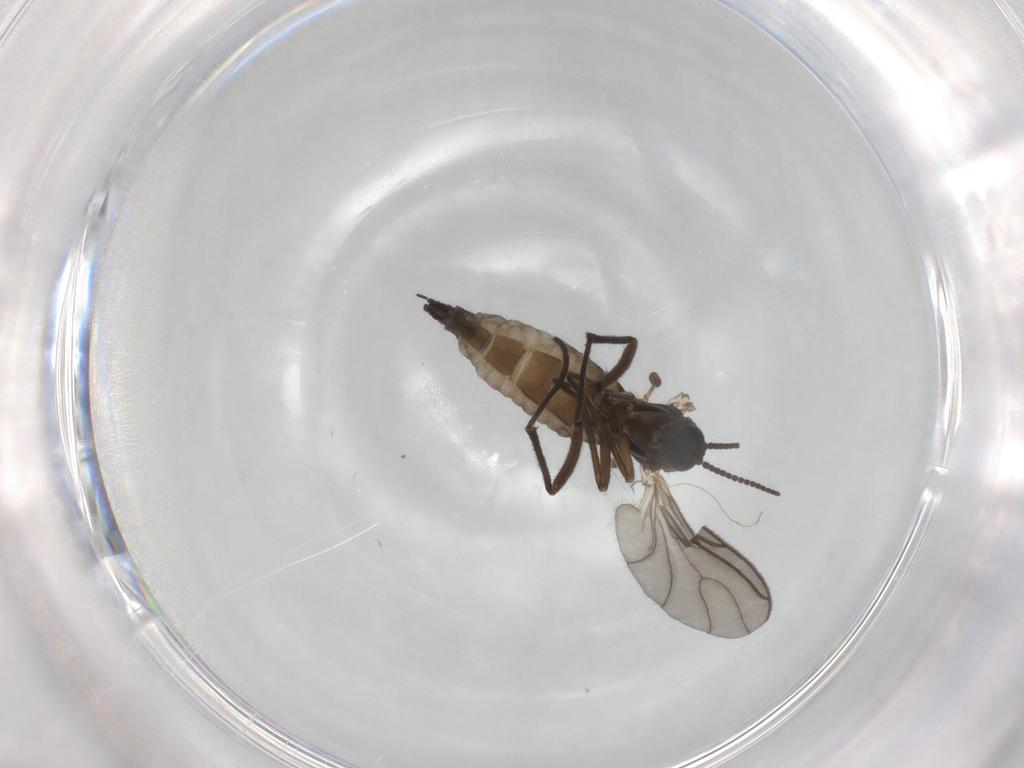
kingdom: Animalia
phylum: Arthropoda
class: Insecta
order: Diptera
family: Sciaridae
